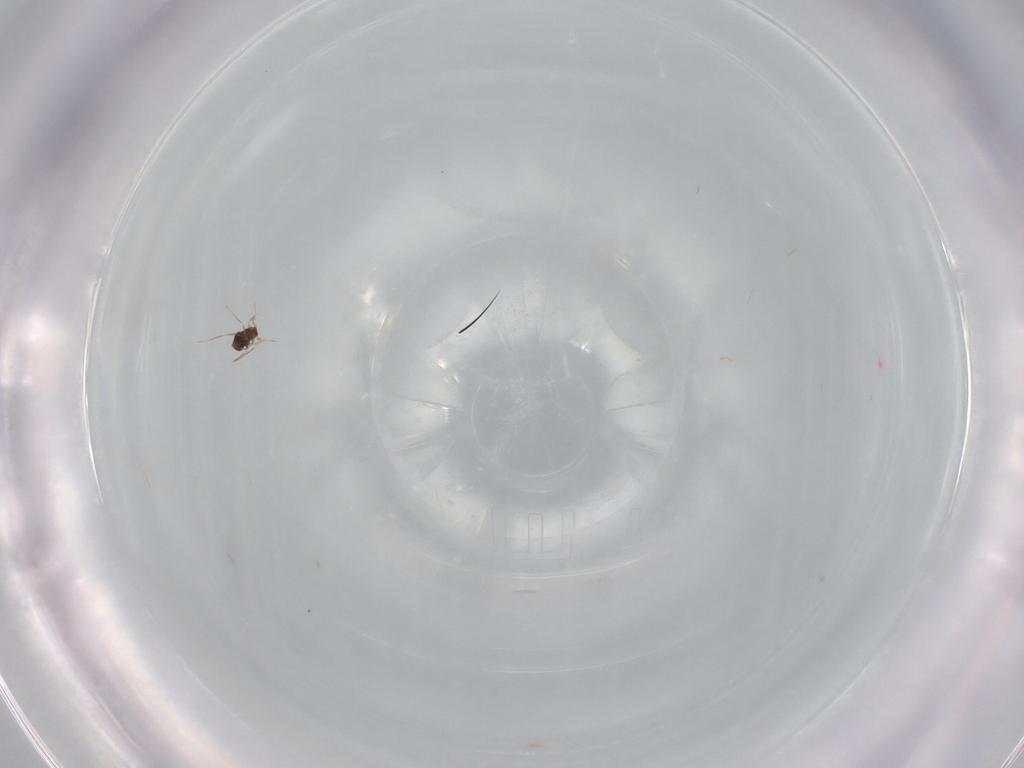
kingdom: Animalia
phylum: Arthropoda
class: Insecta
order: Hymenoptera
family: Mymaridae
